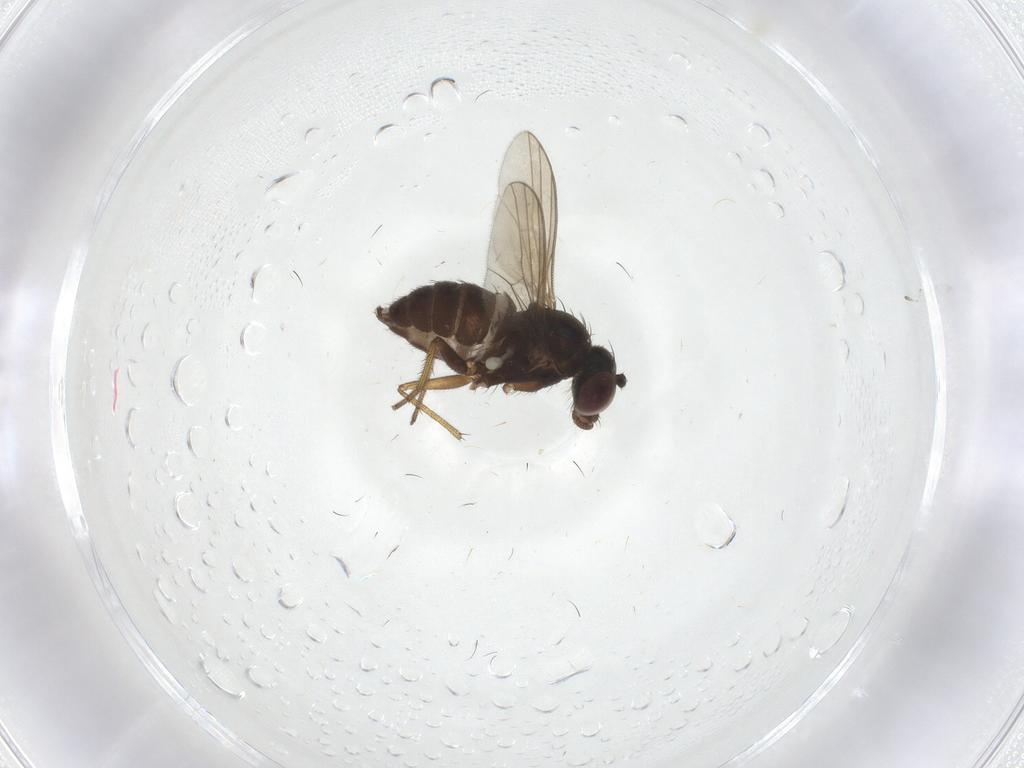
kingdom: Animalia
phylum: Arthropoda
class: Insecta
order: Diptera
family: Dolichopodidae
